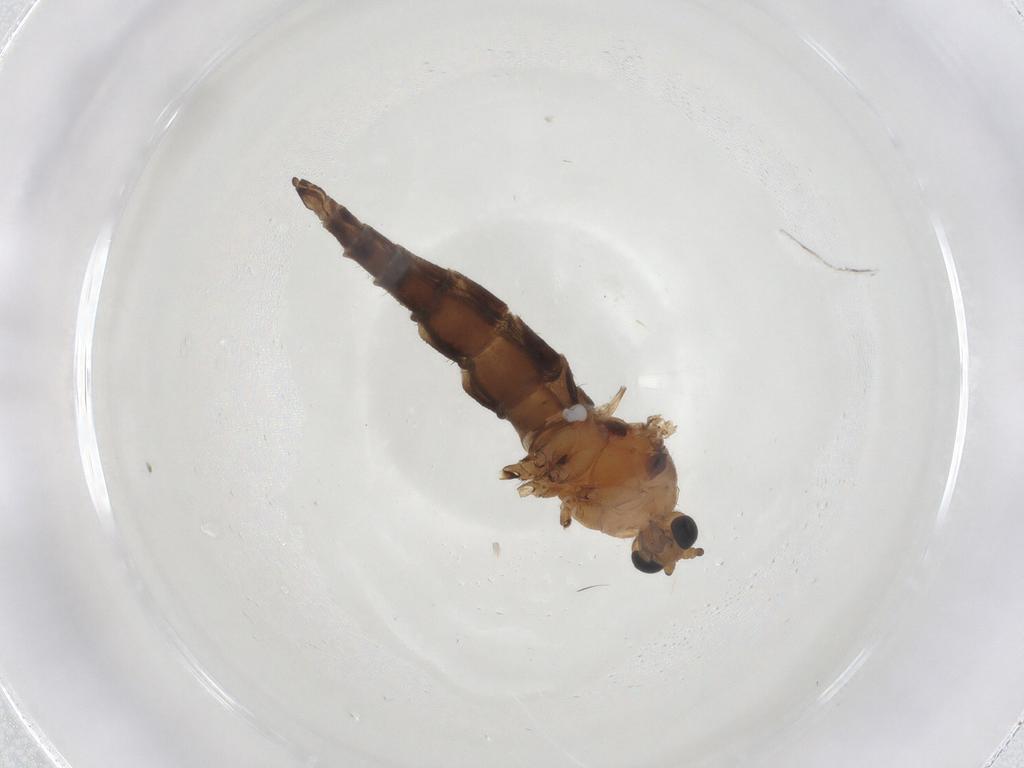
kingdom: Animalia
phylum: Arthropoda
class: Insecta
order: Diptera
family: Sciaridae
